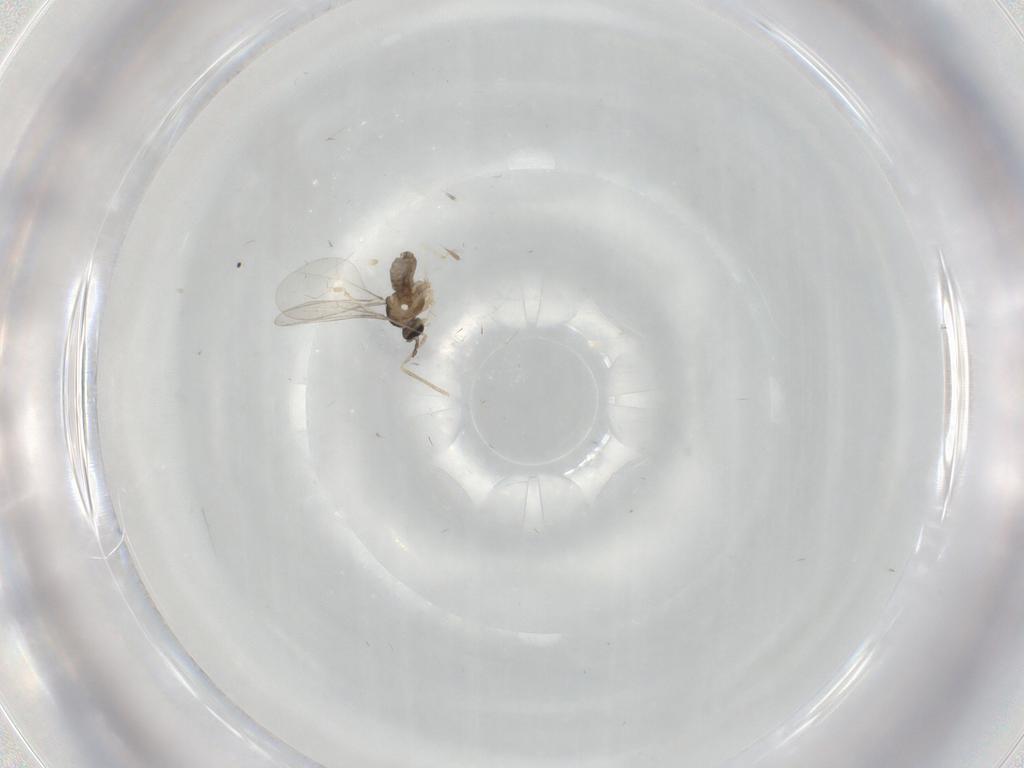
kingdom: Animalia
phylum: Arthropoda
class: Insecta
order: Diptera
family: Cecidomyiidae
